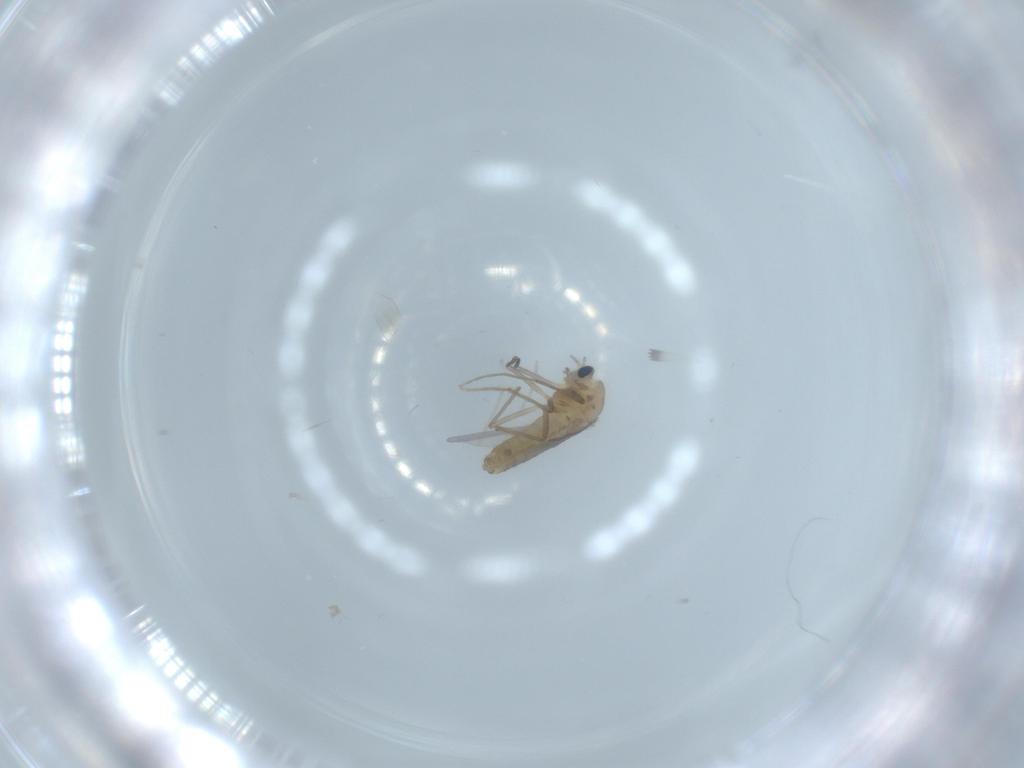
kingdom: Animalia
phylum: Arthropoda
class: Insecta
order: Diptera
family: Chironomidae
